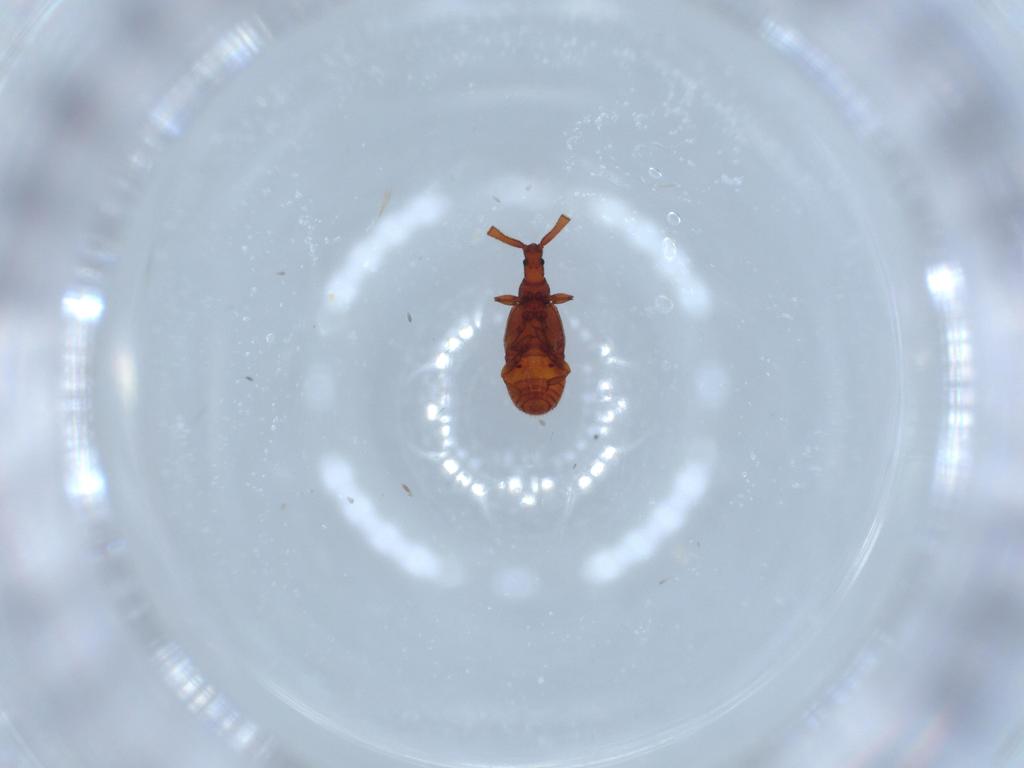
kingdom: Animalia
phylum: Arthropoda
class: Insecta
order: Coleoptera
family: Staphylinidae
